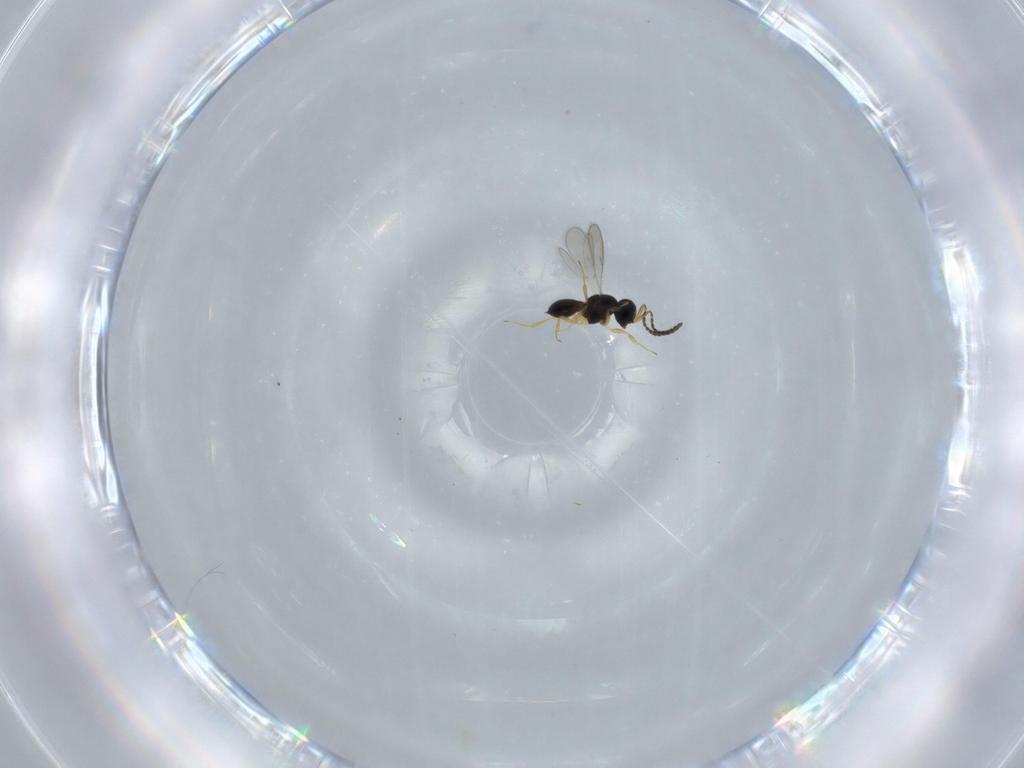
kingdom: Animalia
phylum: Arthropoda
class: Insecta
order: Hymenoptera
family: Scelionidae
